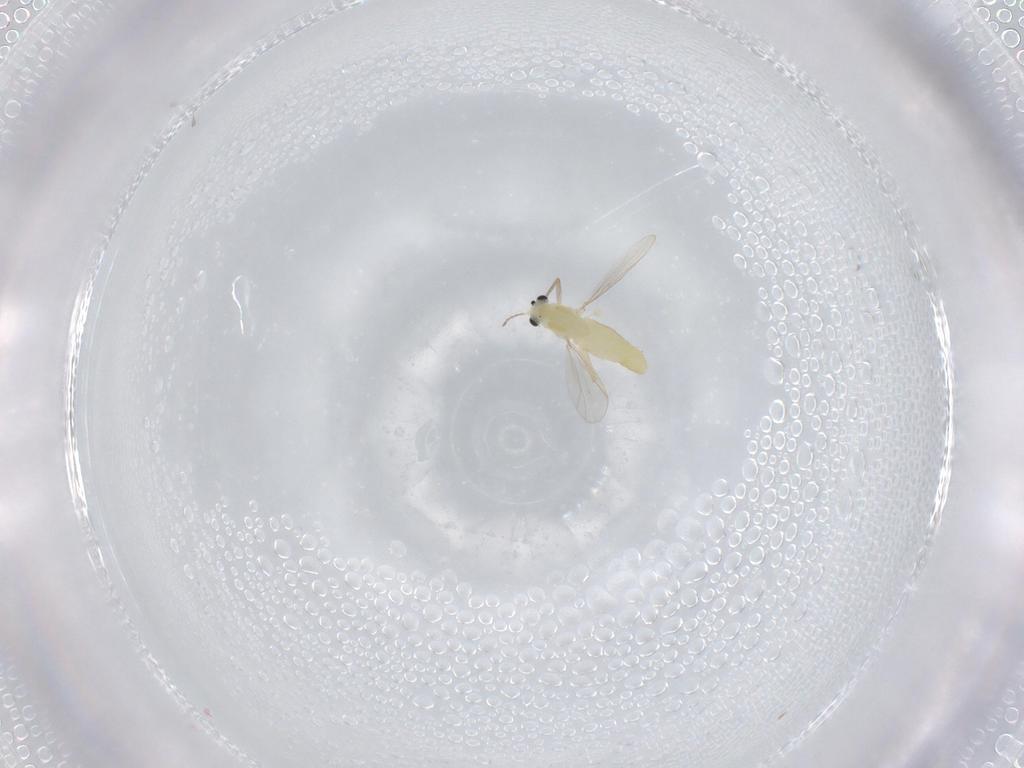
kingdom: Animalia
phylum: Arthropoda
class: Insecta
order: Diptera
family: Chironomidae
